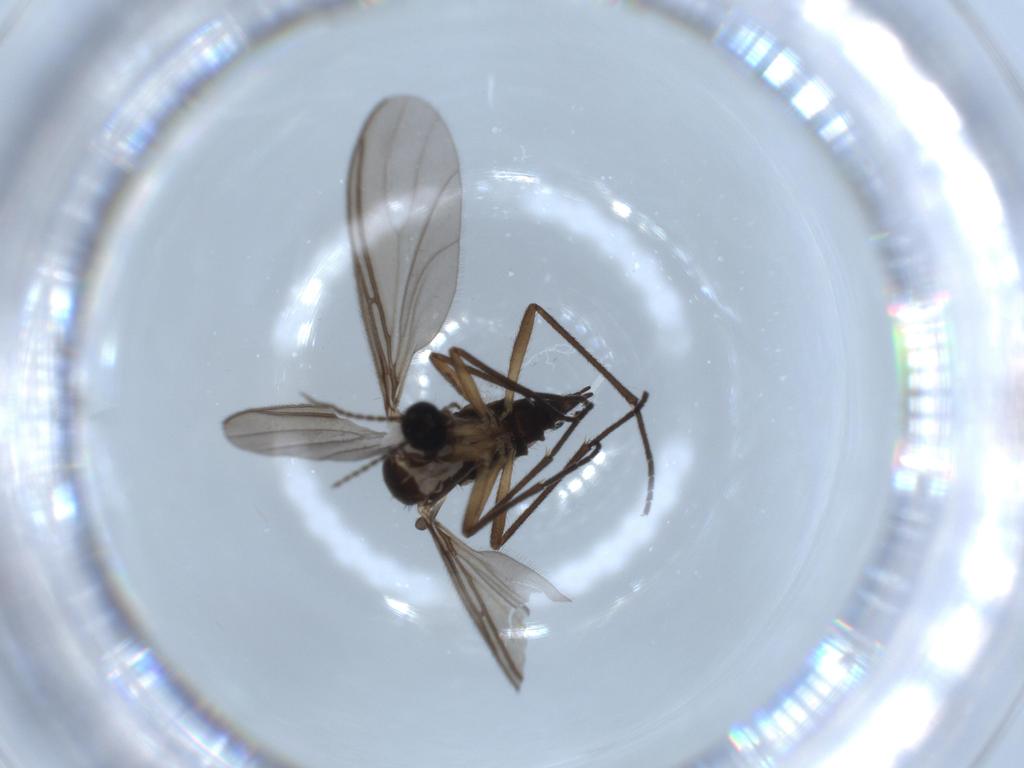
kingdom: Animalia
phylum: Arthropoda
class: Insecta
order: Diptera
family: Sciaridae
